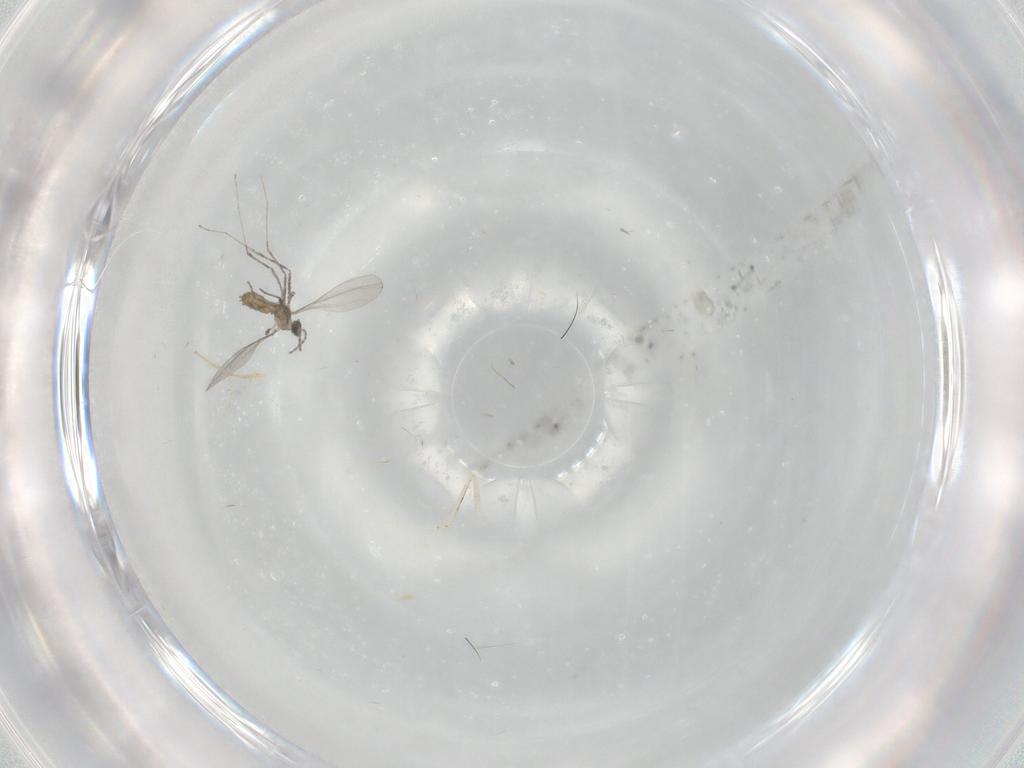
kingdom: Animalia
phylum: Arthropoda
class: Insecta
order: Diptera
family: Cecidomyiidae
